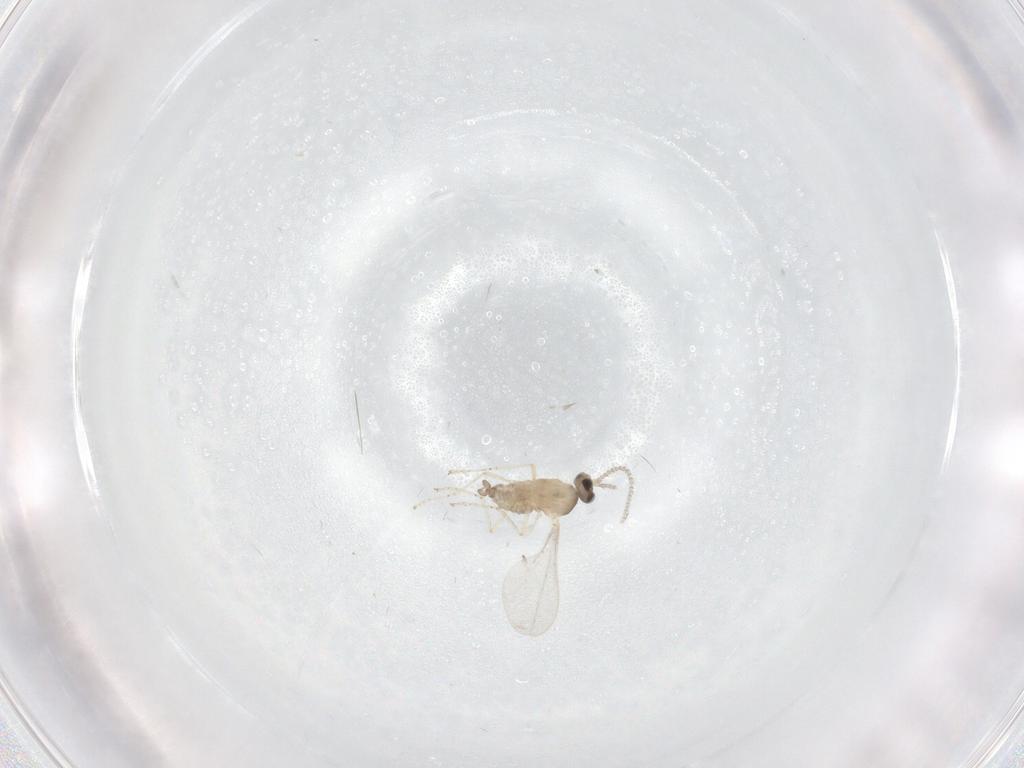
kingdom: Animalia
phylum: Arthropoda
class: Insecta
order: Diptera
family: Cecidomyiidae
